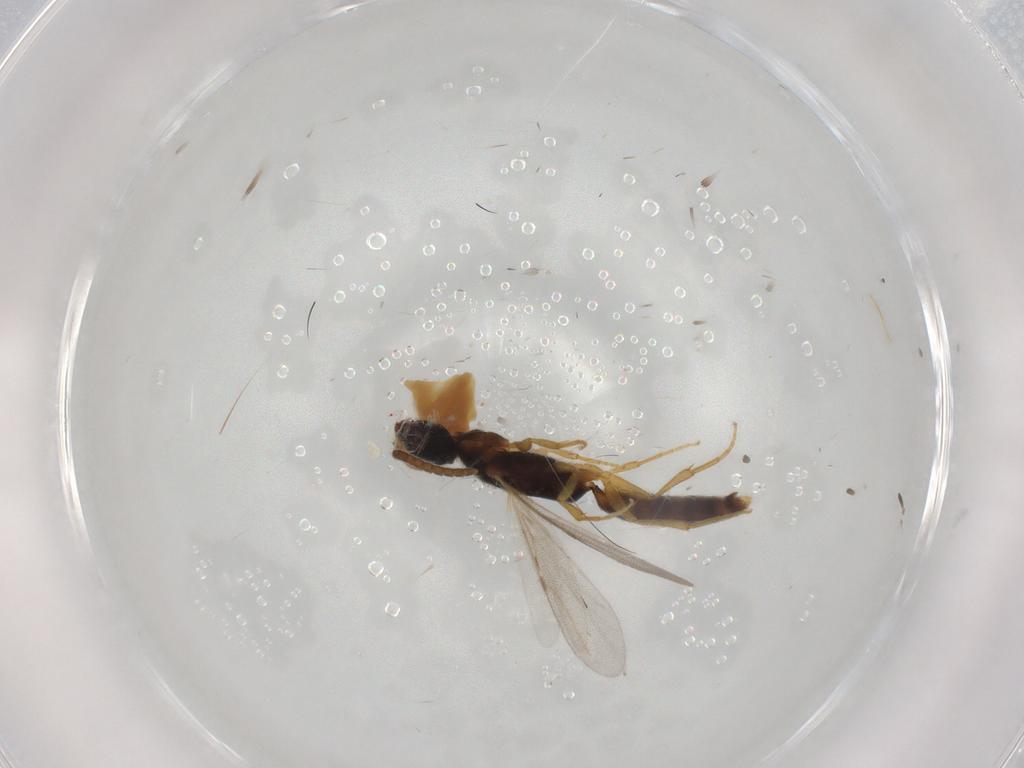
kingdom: Animalia
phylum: Arthropoda
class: Insecta
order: Hymenoptera
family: Bethylidae
